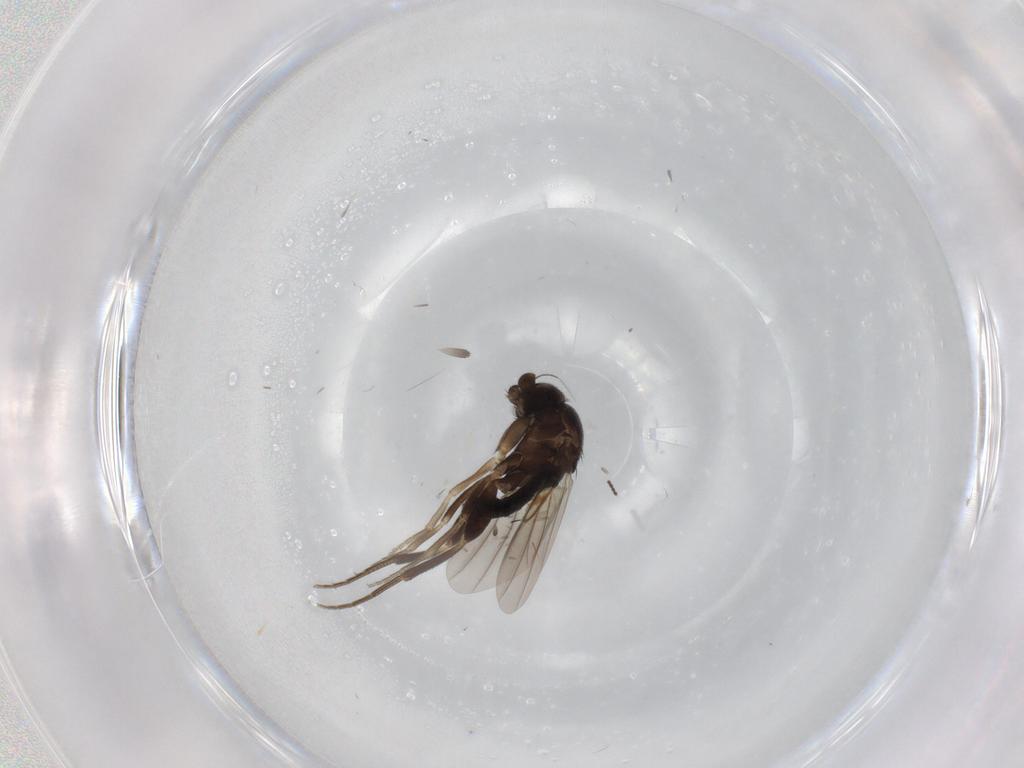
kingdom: Animalia
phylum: Arthropoda
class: Insecta
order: Diptera
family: Sciaridae
